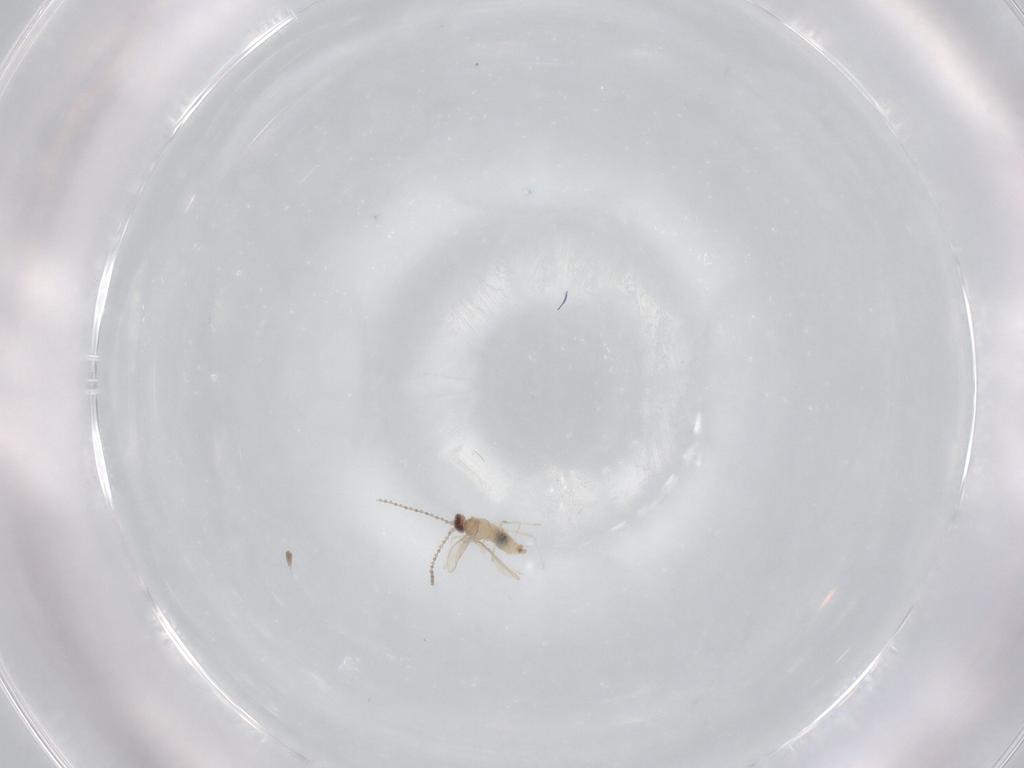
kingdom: Animalia
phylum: Arthropoda
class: Insecta
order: Diptera
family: Cecidomyiidae
